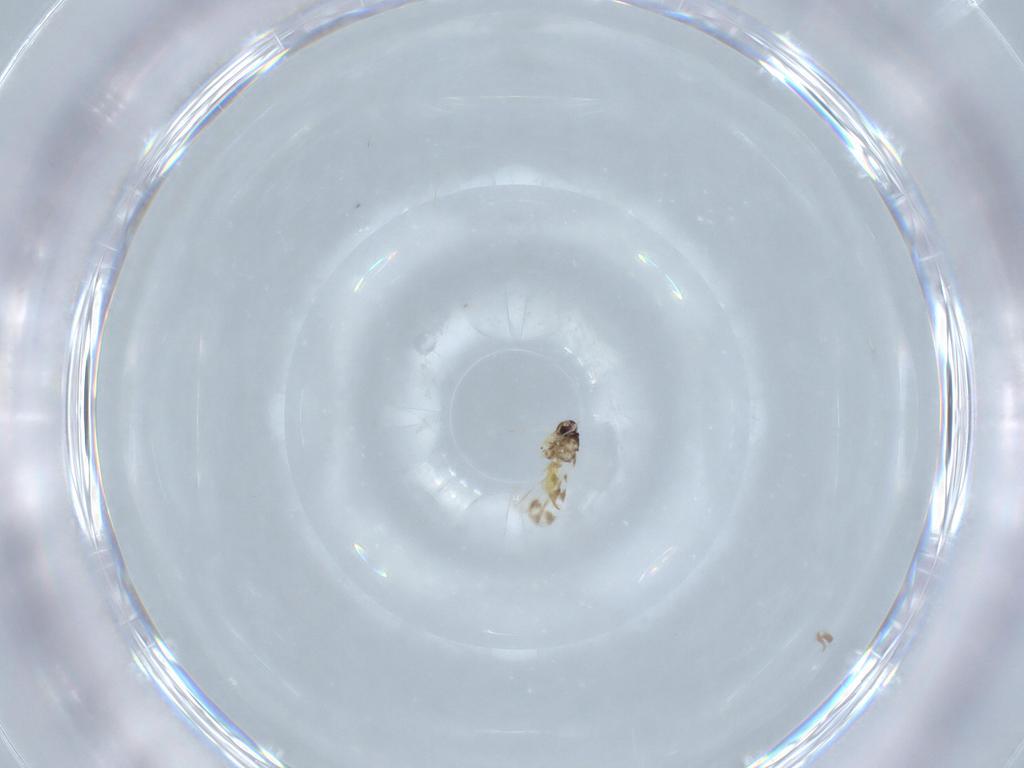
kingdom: Animalia
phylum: Arthropoda
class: Insecta
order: Hemiptera
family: Aleyrodidae
